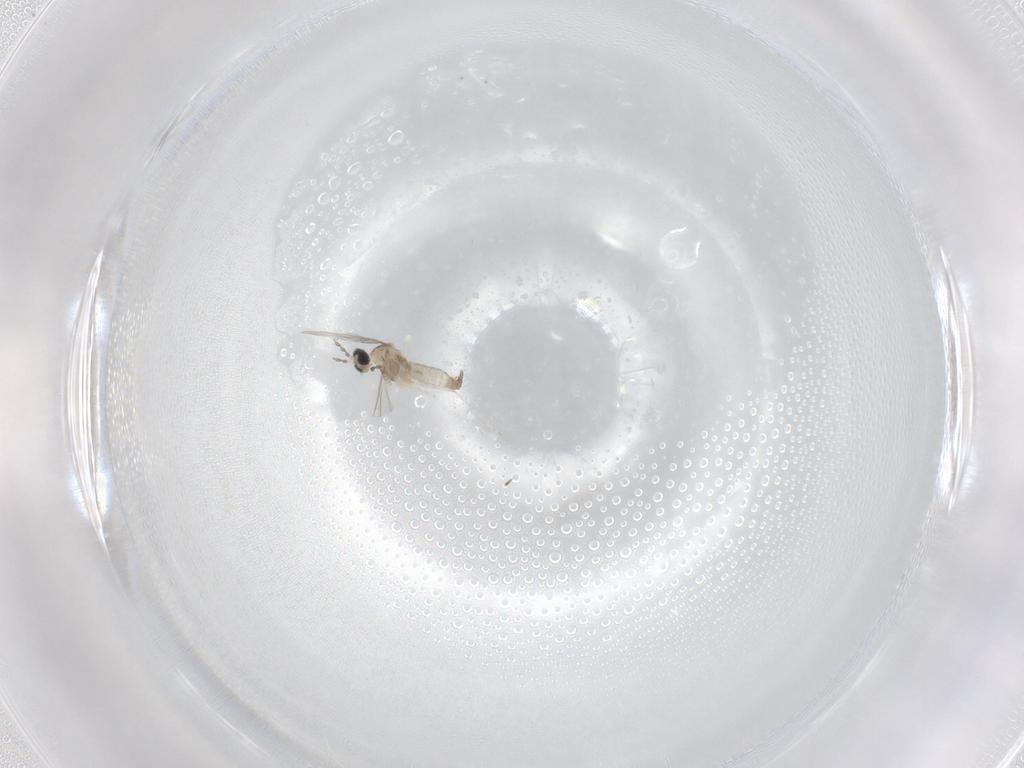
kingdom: Animalia
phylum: Arthropoda
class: Insecta
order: Diptera
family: Cecidomyiidae
